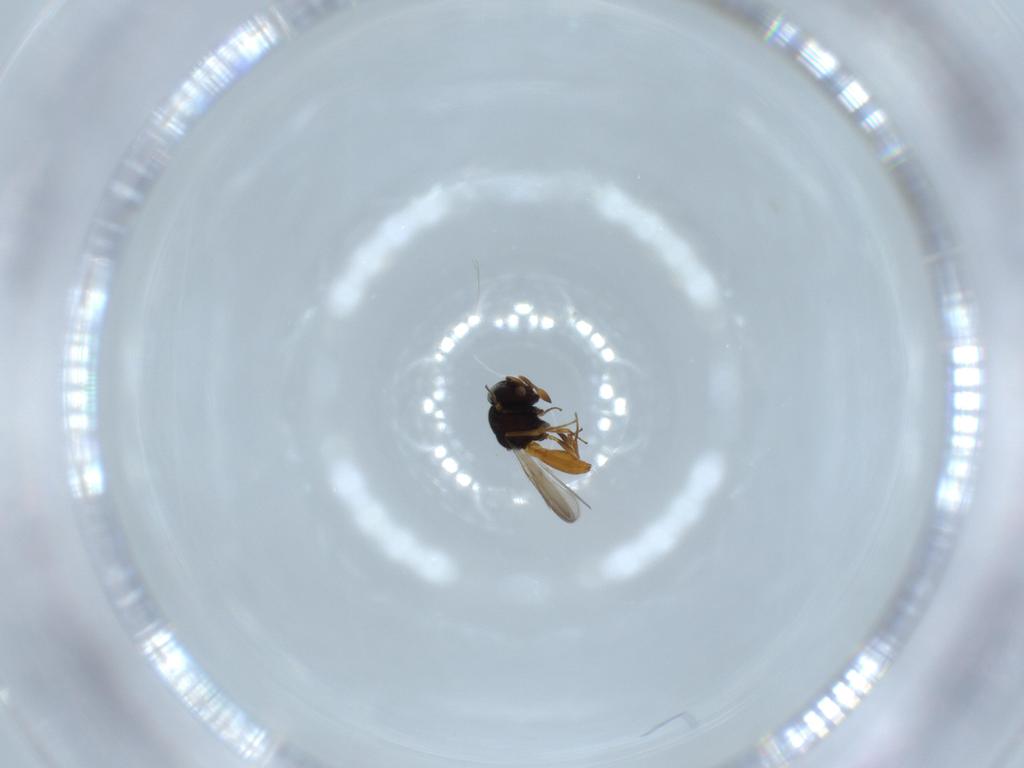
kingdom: Animalia
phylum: Arthropoda
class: Insecta
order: Hymenoptera
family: Scelionidae
